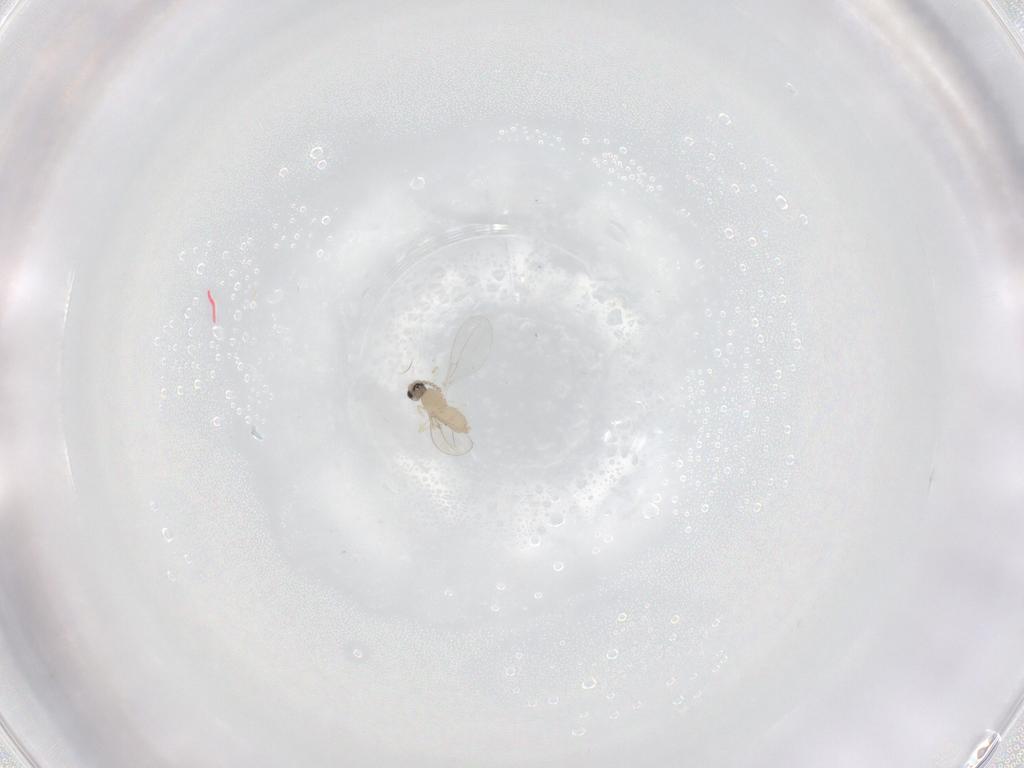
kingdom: Animalia
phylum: Arthropoda
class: Insecta
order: Diptera
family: Cecidomyiidae
